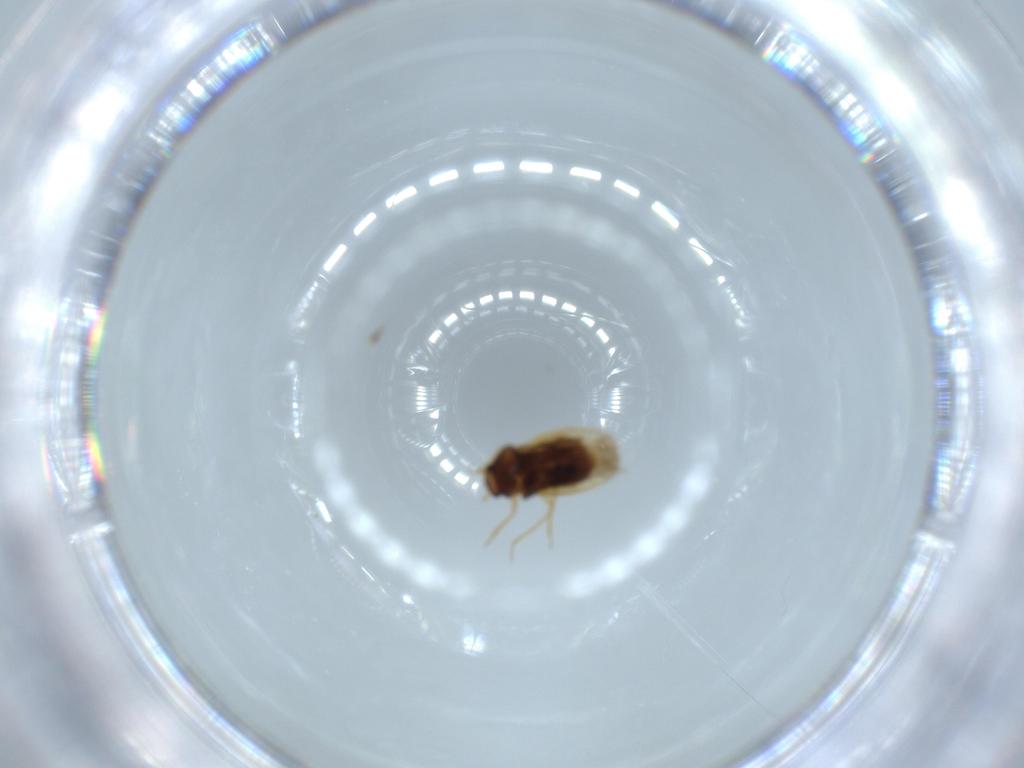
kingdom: Animalia
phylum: Arthropoda
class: Insecta
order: Hemiptera
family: Schizopteridae
